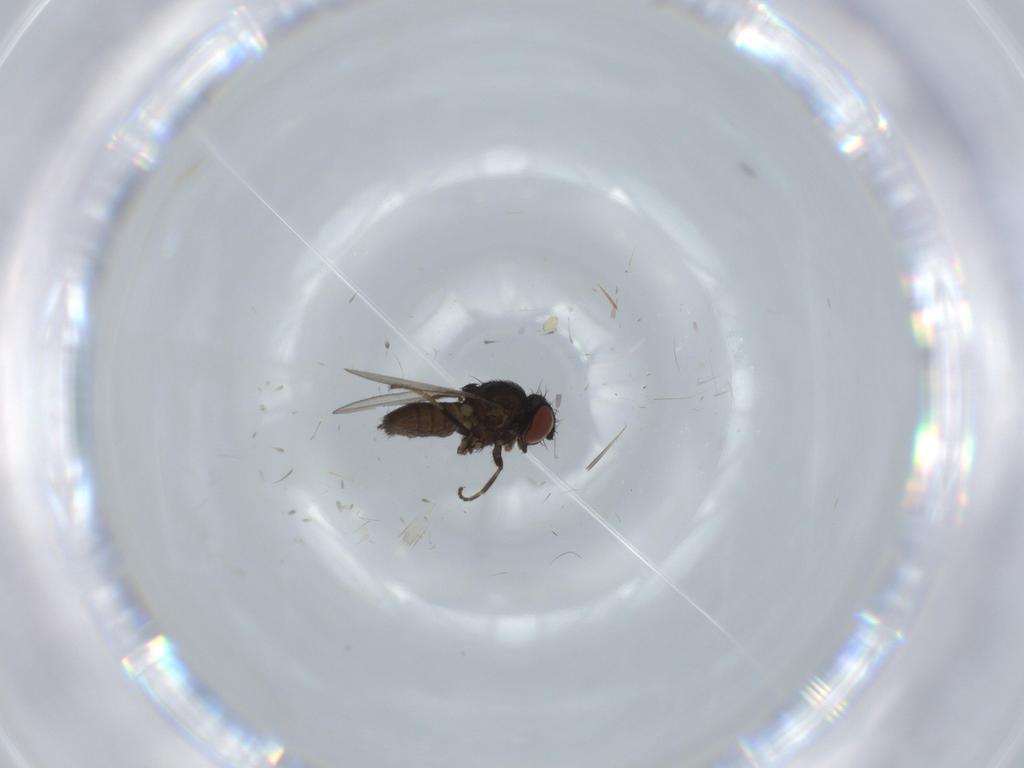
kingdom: Animalia
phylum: Arthropoda
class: Insecta
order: Diptera
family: Milichiidae
